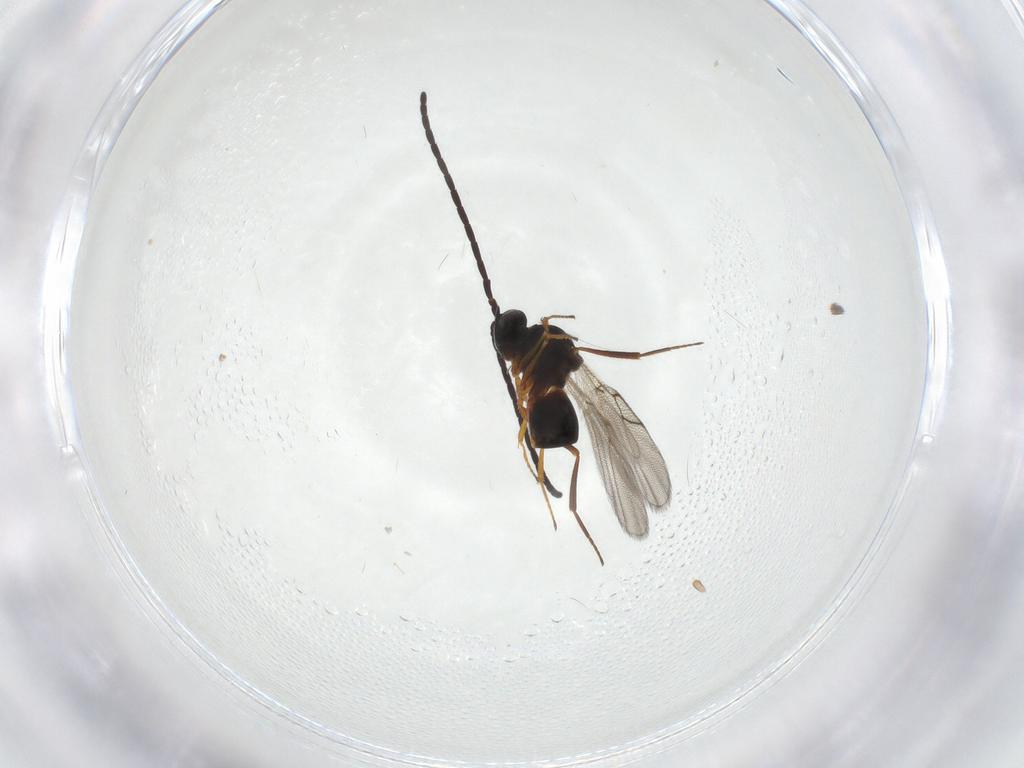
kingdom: Animalia
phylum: Arthropoda
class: Insecta
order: Hymenoptera
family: Figitidae
